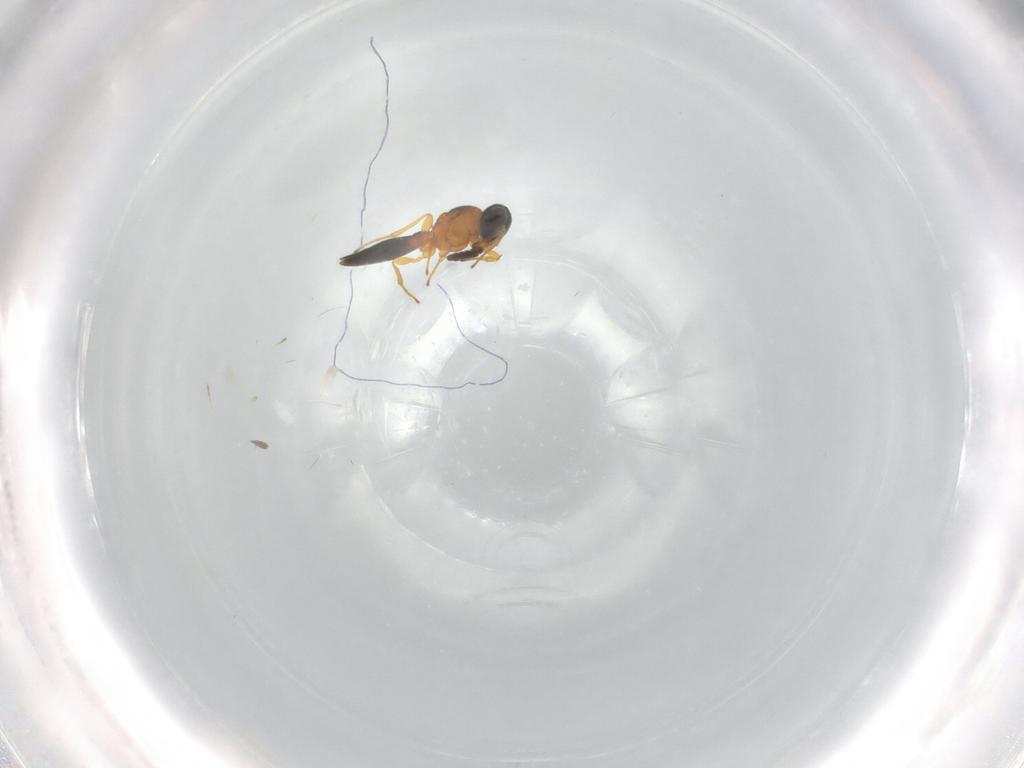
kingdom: Animalia
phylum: Arthropoda
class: Insecta
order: Hymenoptera
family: Platygastridae
